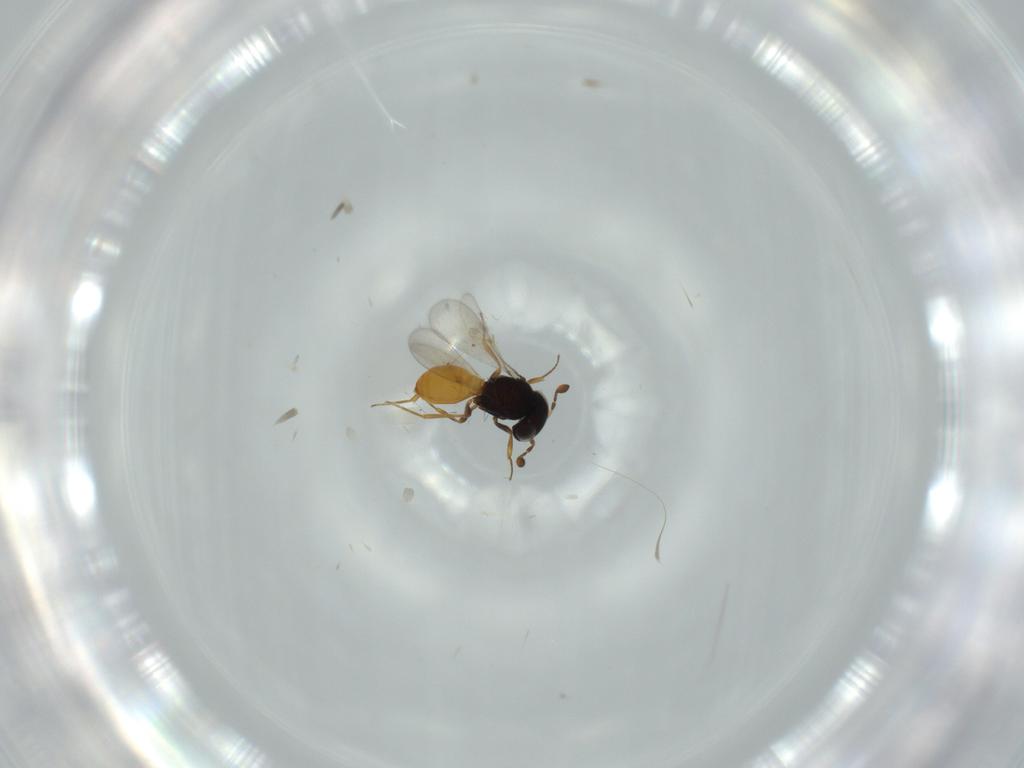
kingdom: Animalia
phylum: Arthropoda
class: Insecta
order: Hymenoptera
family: Scelionidae
